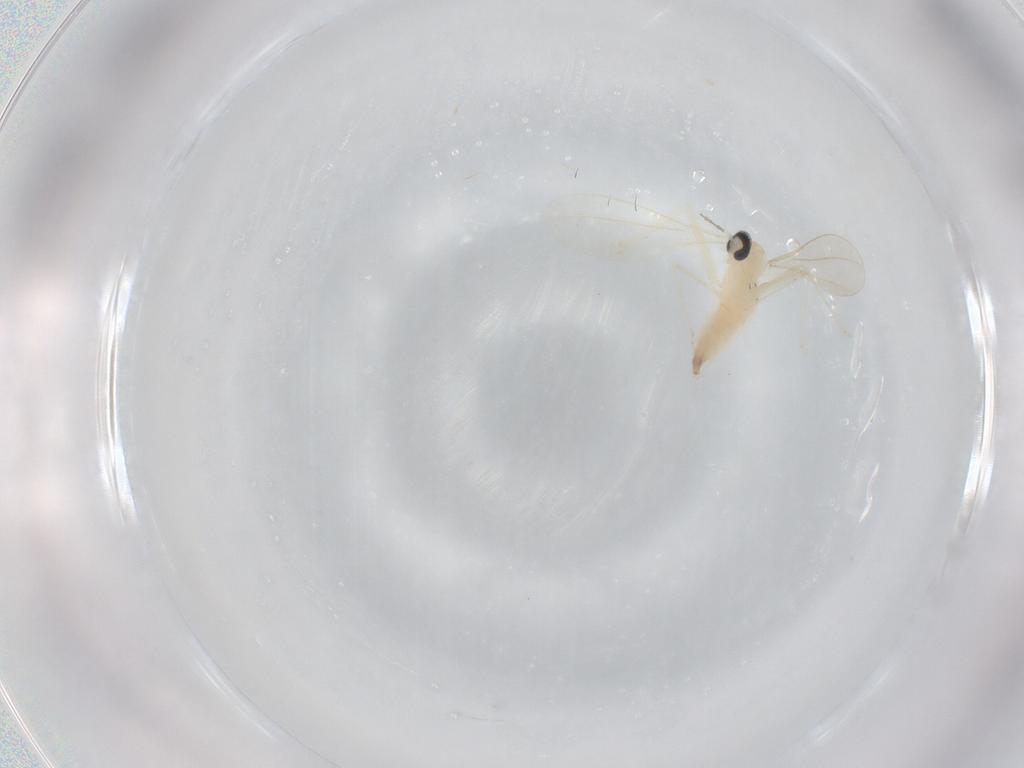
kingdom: Animalia
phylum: Arthropoda
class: Insecta
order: Diptera
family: Cecidomyiidae
